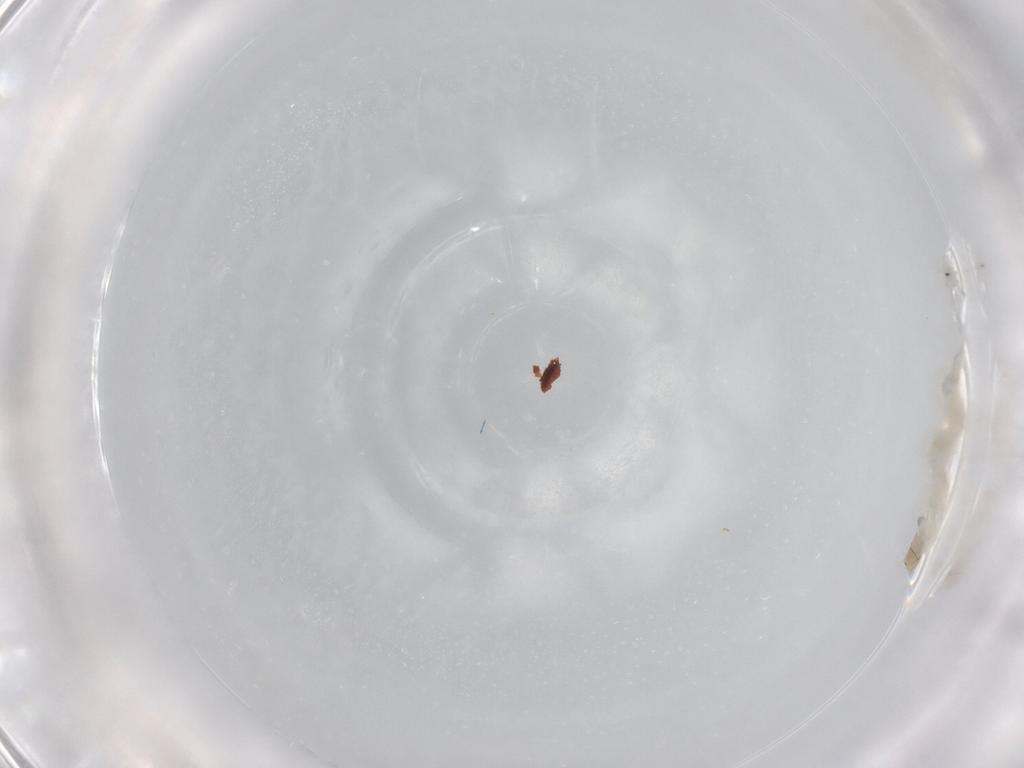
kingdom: Animalia
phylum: Arthropoda
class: Insecta
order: Diptera
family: Chironomidae
